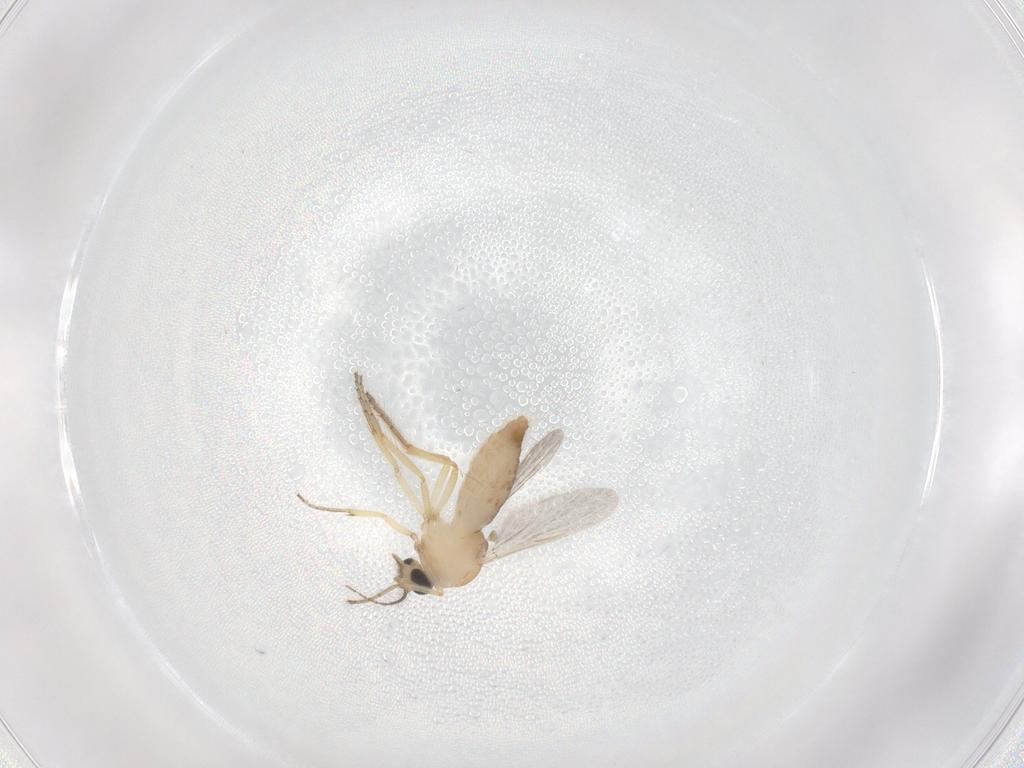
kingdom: Animalia
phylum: Arthropoda
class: Insecta
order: Diptera
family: Ceratopogonidae
